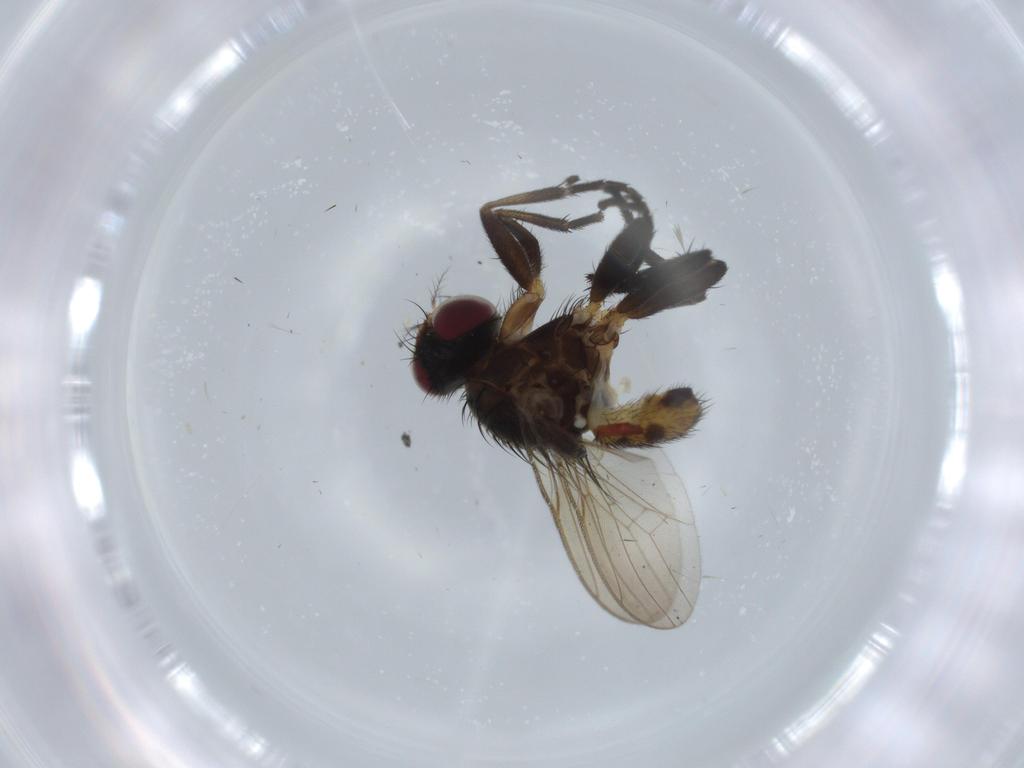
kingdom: Animalia
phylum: Arthropoda
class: Insecta
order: Diptera
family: Anthomyiidae
